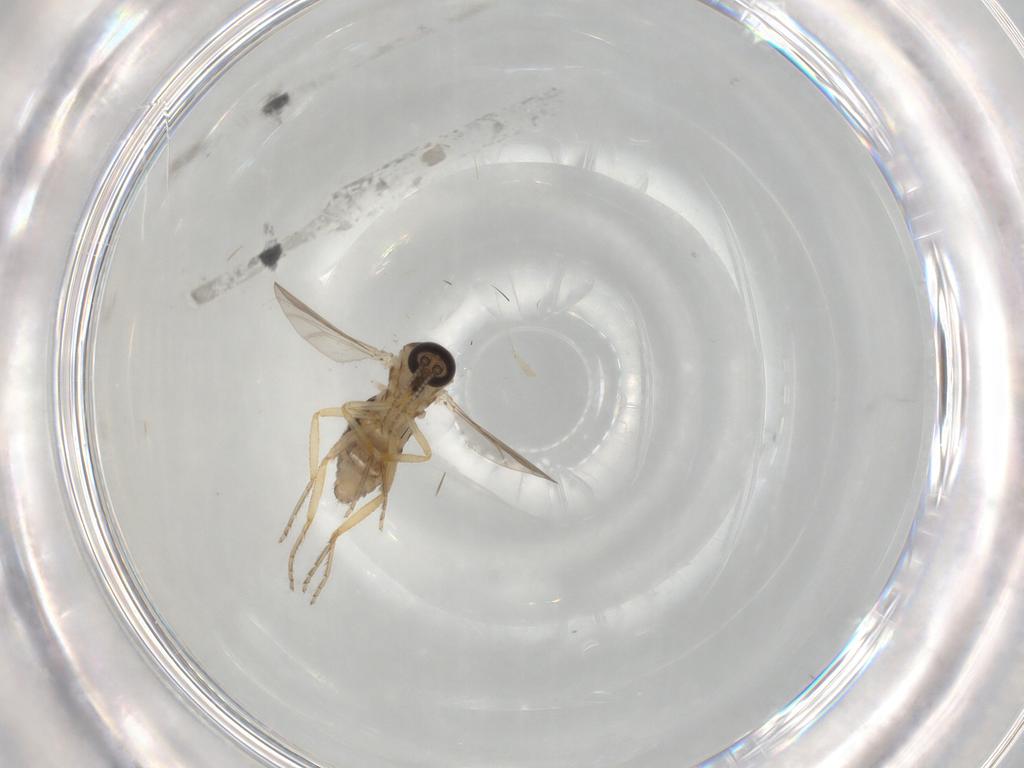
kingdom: Animalia
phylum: Arthropoda
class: Insecta
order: Diptera
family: Ceratopogonidae
